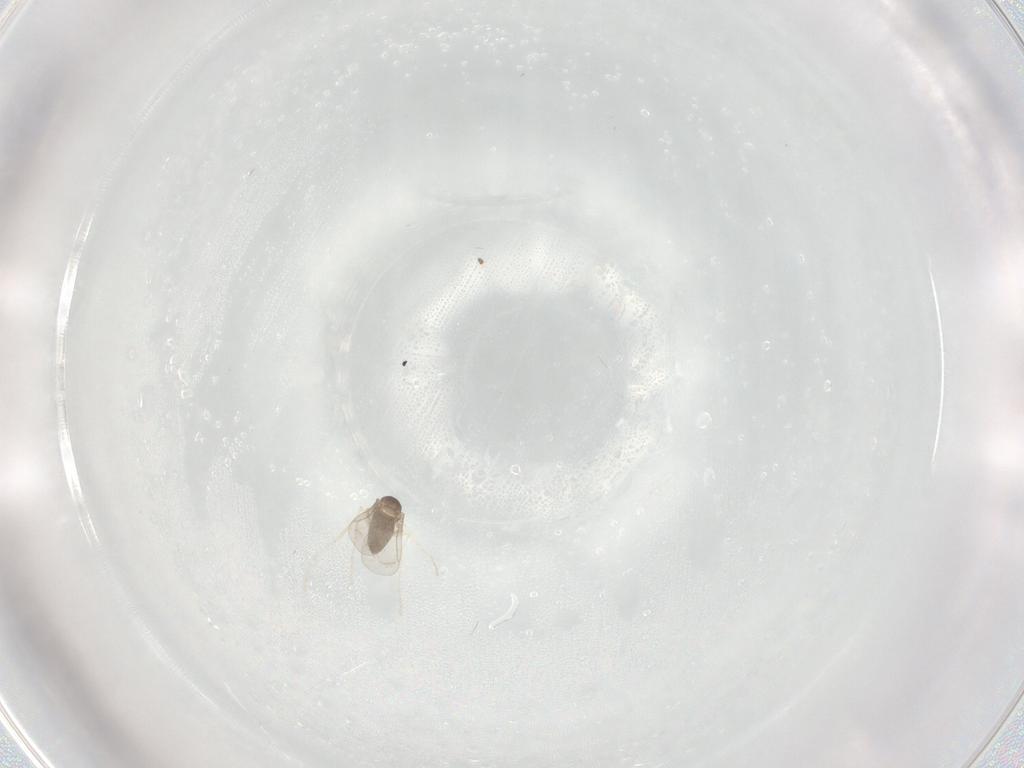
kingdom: Animalia
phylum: Arthropoda
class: Insecta
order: Diptera
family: Cecidomyiidae
